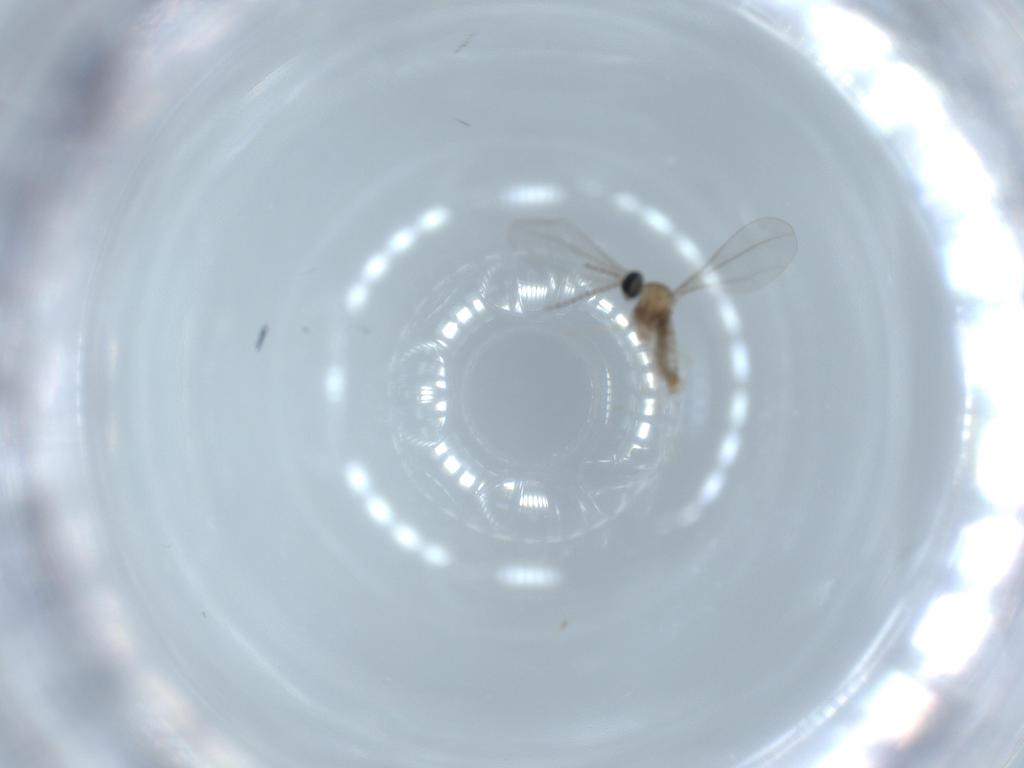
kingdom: Animalia
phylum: Arthropoda
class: Insecta
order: Diptera
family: Cecidomyiidae
